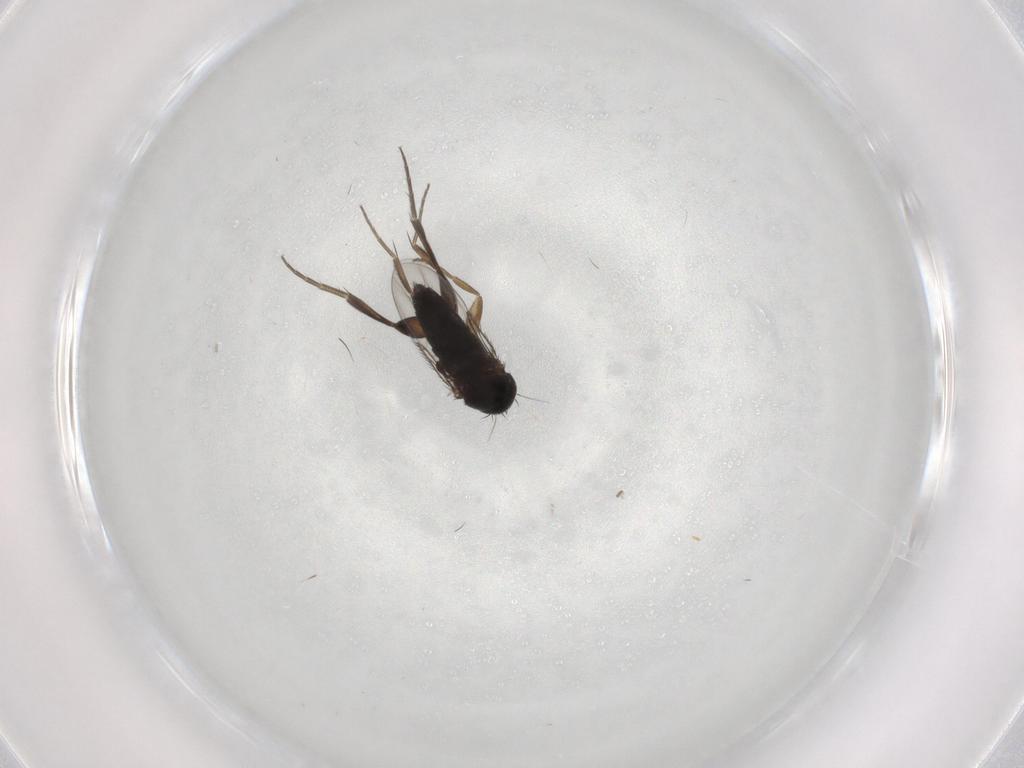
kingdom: Animalia
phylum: Arthropoda
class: Insecta
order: Diptera
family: Phoridae
